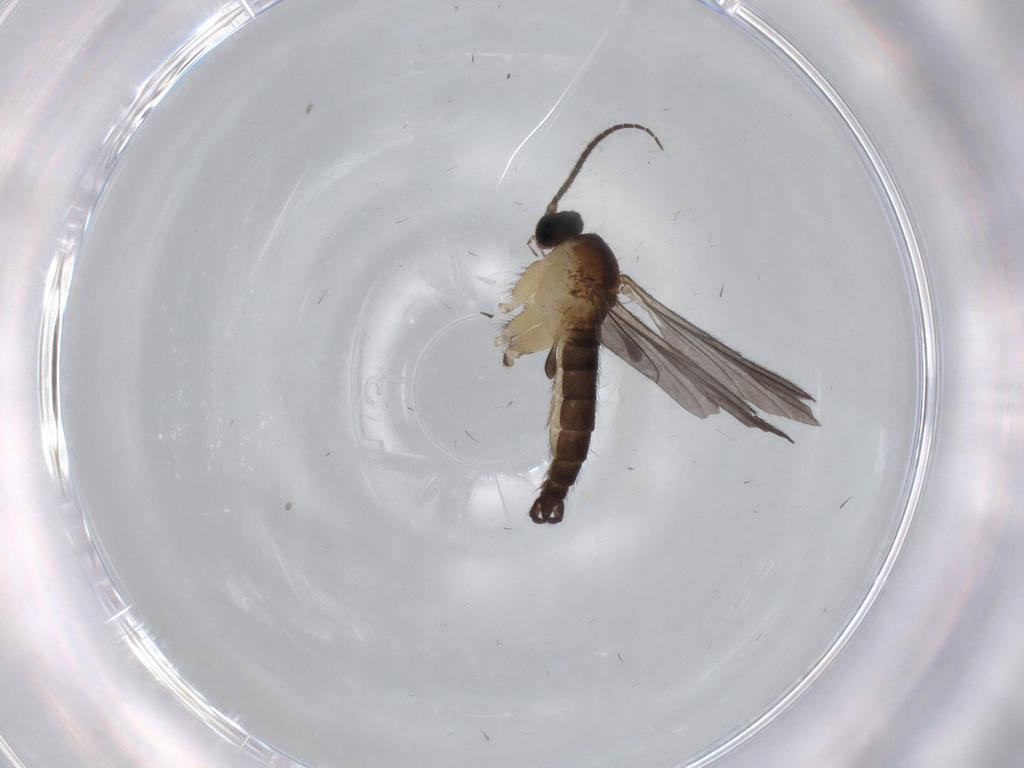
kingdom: Animalia
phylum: Arthropoda
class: Insecta
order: Diptera
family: Sciaridae
